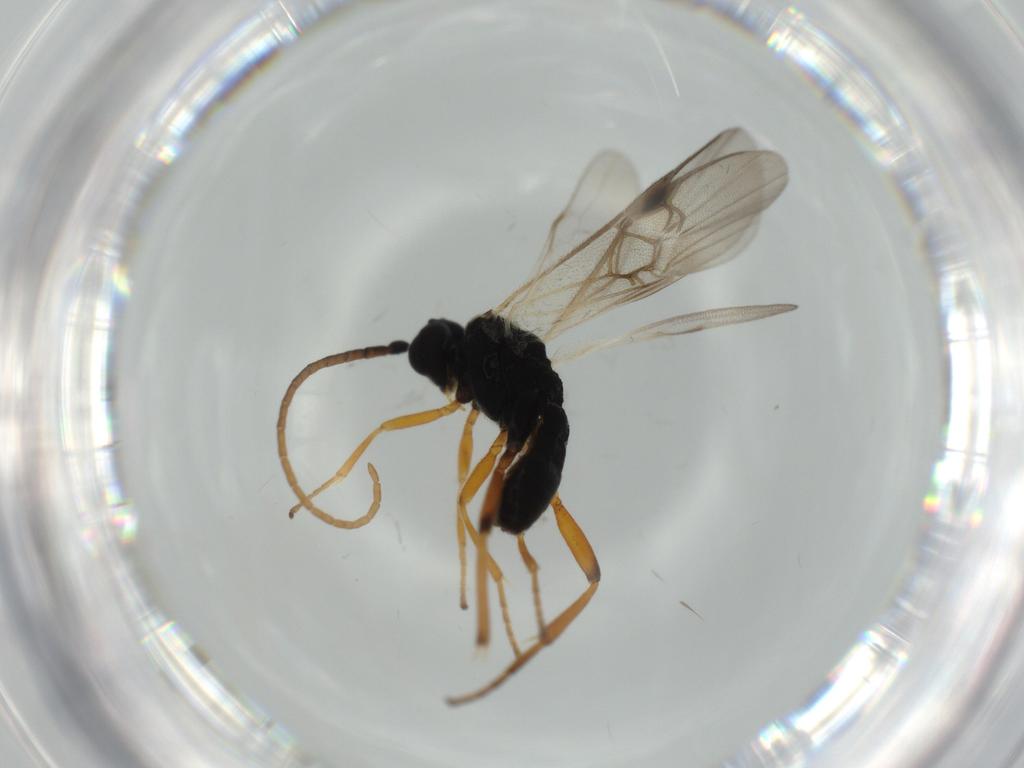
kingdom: Animalia
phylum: Arthropoda
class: Insecta
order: Hymenoptera
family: Braconidae
